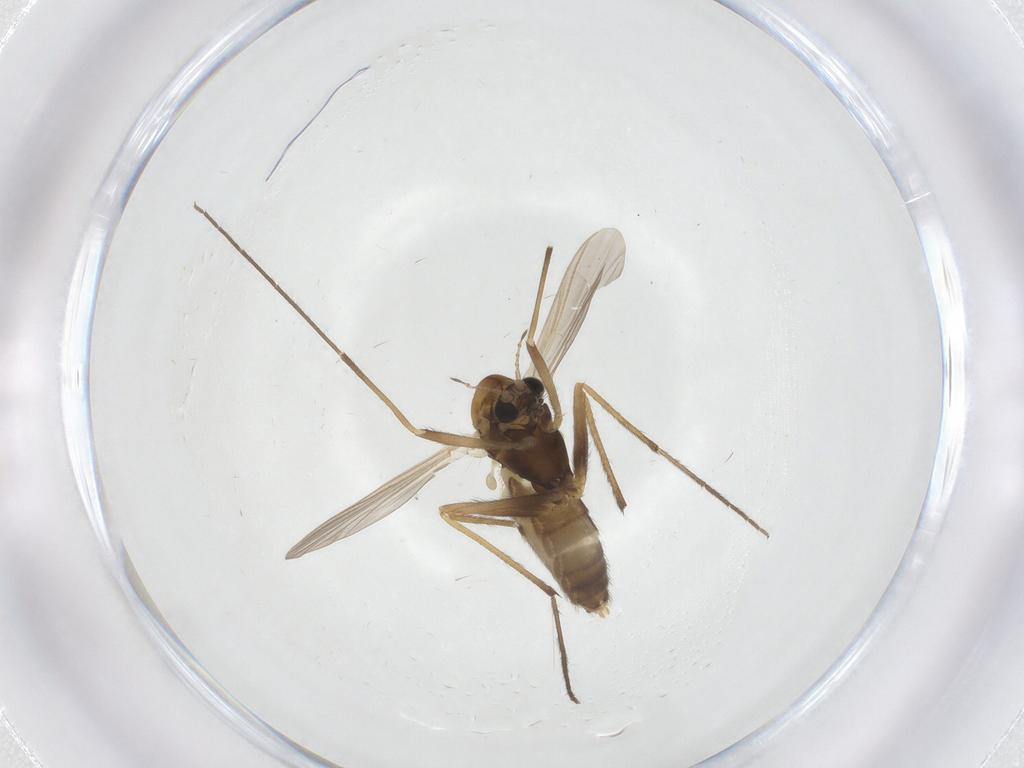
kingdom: Animalia
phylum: Arthropoda
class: Insecta
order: Diptera
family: Chironomidae
